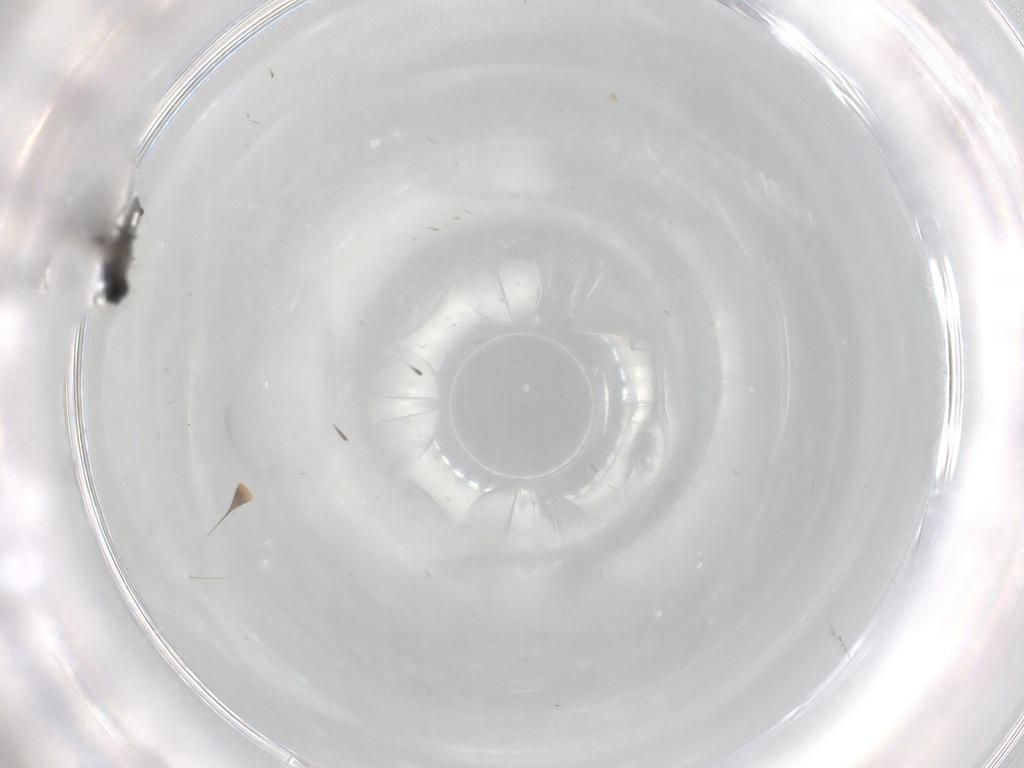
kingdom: Animalia
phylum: Arthropoda
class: Insecta
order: Diptera
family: Chironomidae
